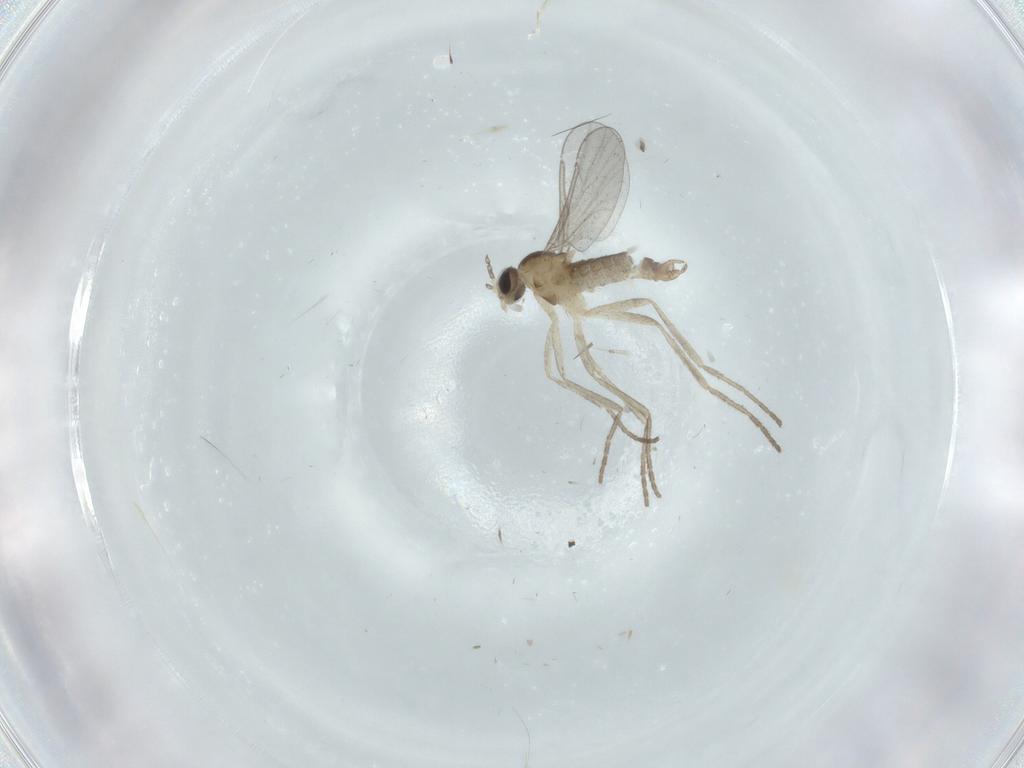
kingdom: Animalia
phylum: Arthropoda
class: Insecta
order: Diptera
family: Cecidomyiidae
